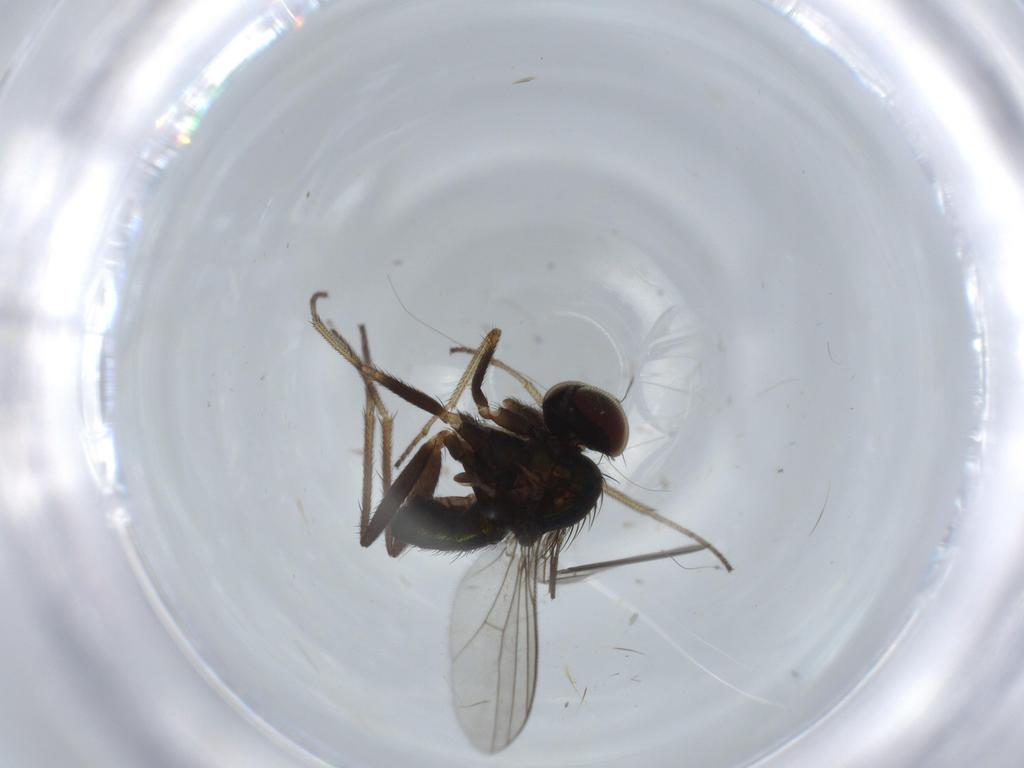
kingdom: Animalia
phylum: Arthropoda
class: Insecta
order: Diptera
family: Dolichopodidae
